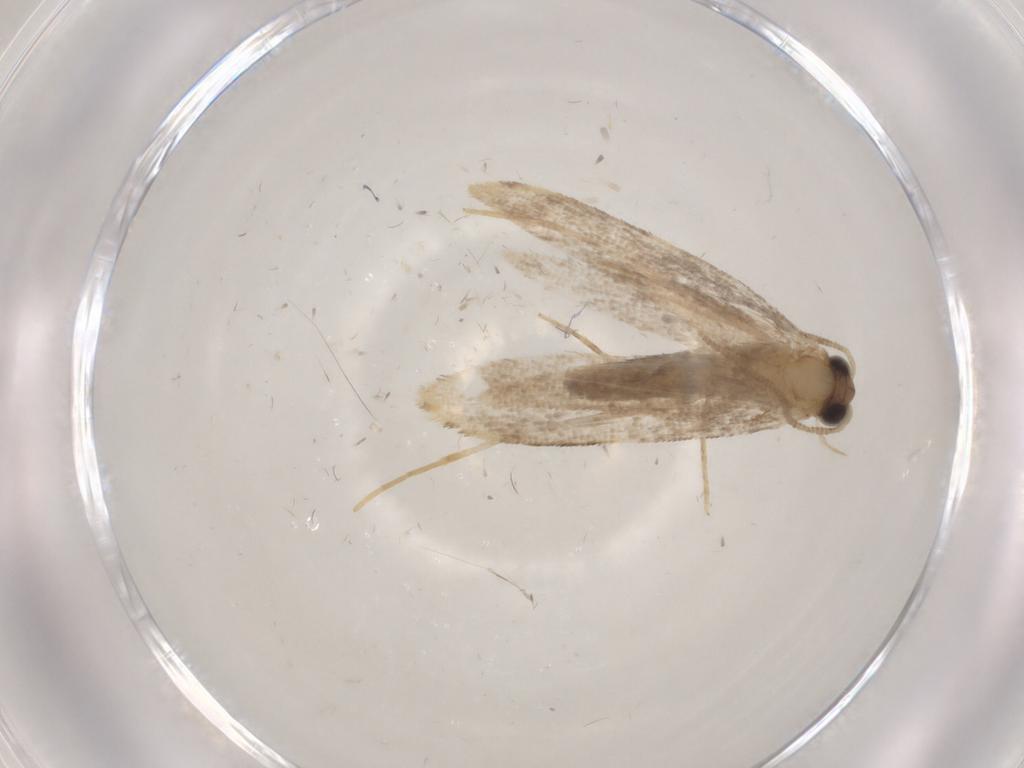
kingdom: Animalia
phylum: Arthropoda
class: Insecta
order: Lepidoptera
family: Tineidae
